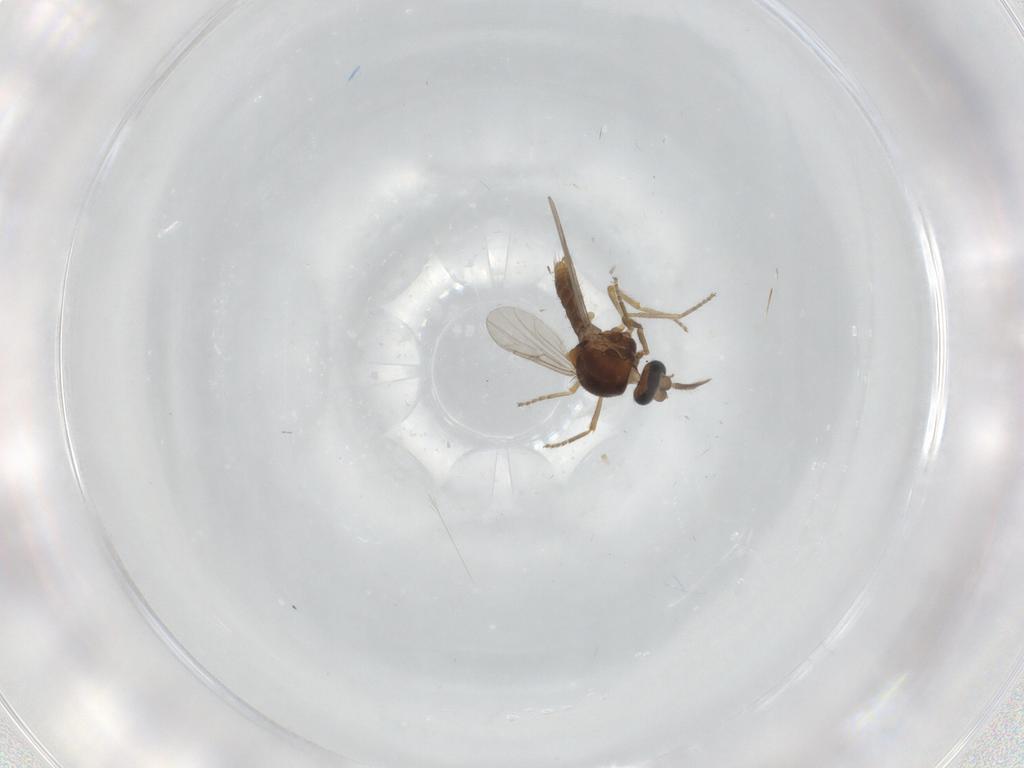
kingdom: Animalia
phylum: Arthropoda
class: Insecta
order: Diptera
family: Ceratopogonidae
